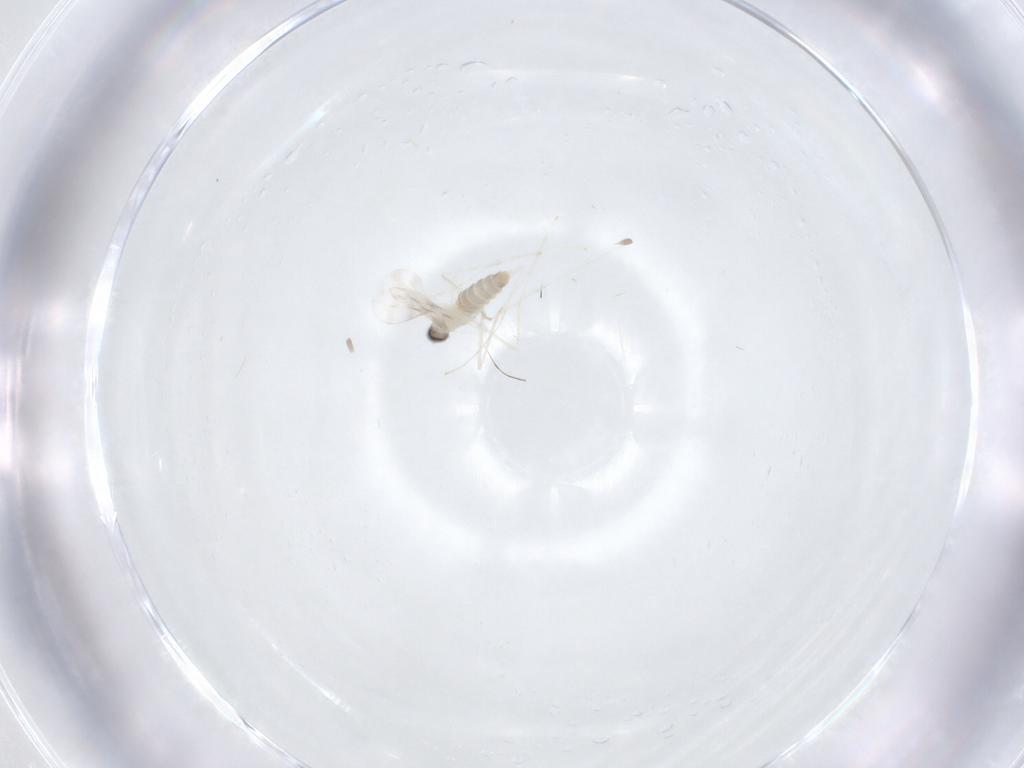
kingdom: Animalia
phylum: Arthropoda
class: Insecta
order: Diptera
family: Cecidomyiidae
